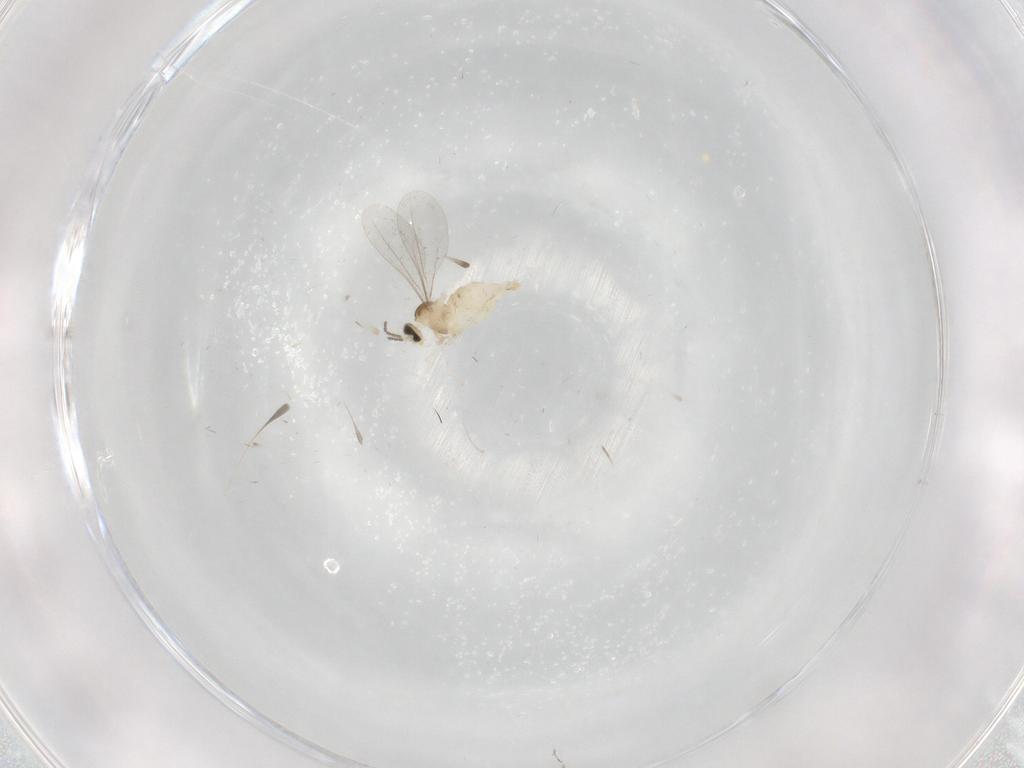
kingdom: Animalia
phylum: Arthropoda
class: Insecta
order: Diptera
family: Cecidomyiidae
